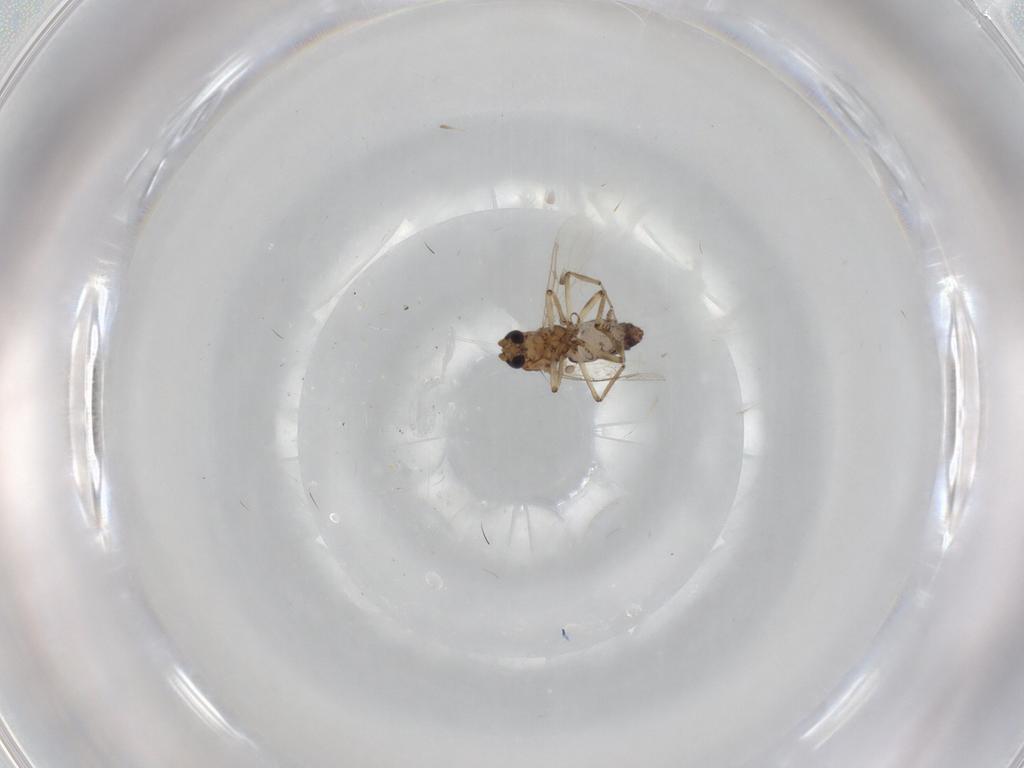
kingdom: Animalia
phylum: Arthropoda
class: Insecta
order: Diptera
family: Ceratopogonidae
